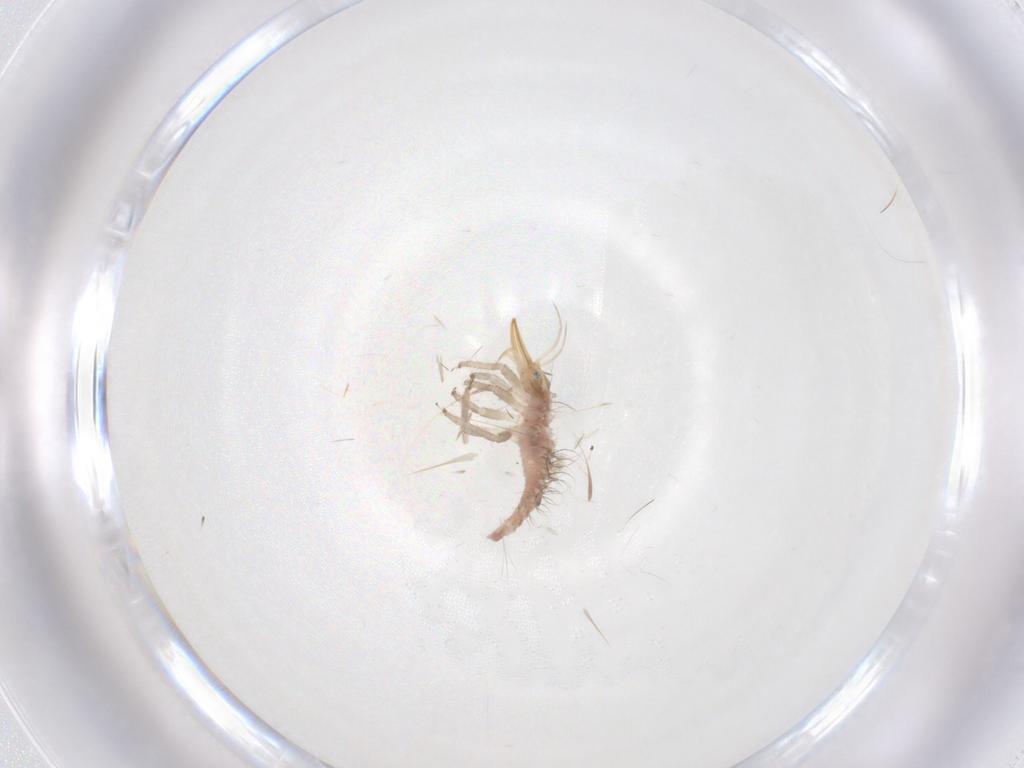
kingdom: Animalia
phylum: Arthropoda
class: Insecta
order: Neuroptera
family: Chrysopidae
